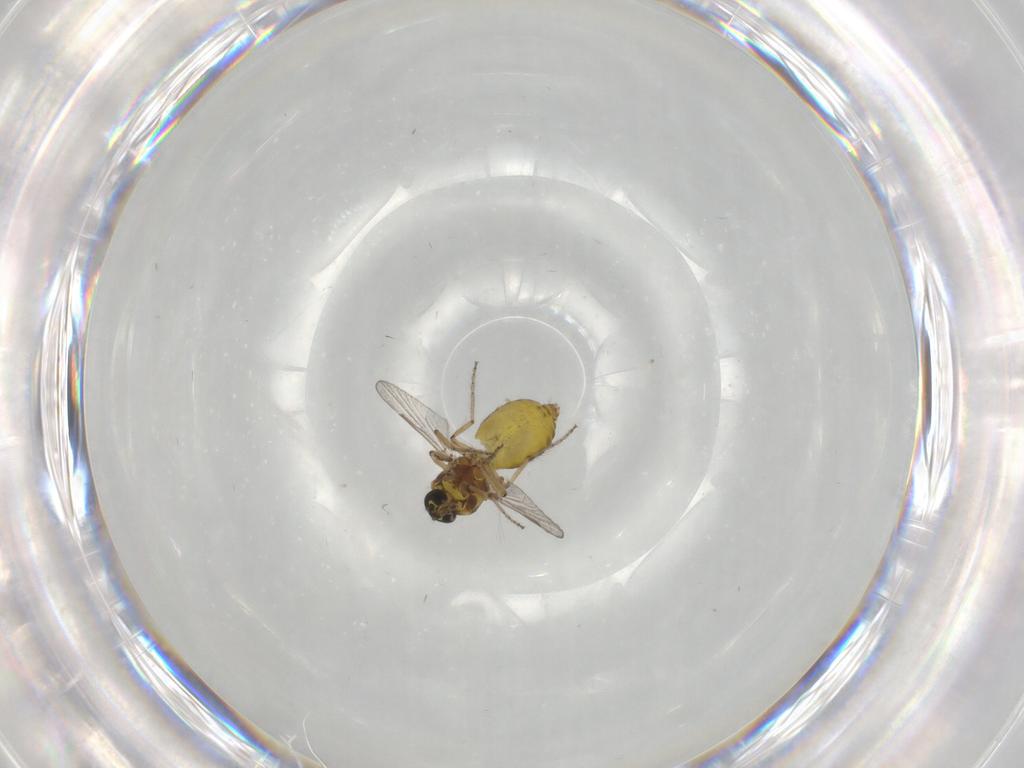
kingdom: Animalia
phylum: Arthropoda
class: Insecta
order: Diptera
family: Ceratopogonidae
